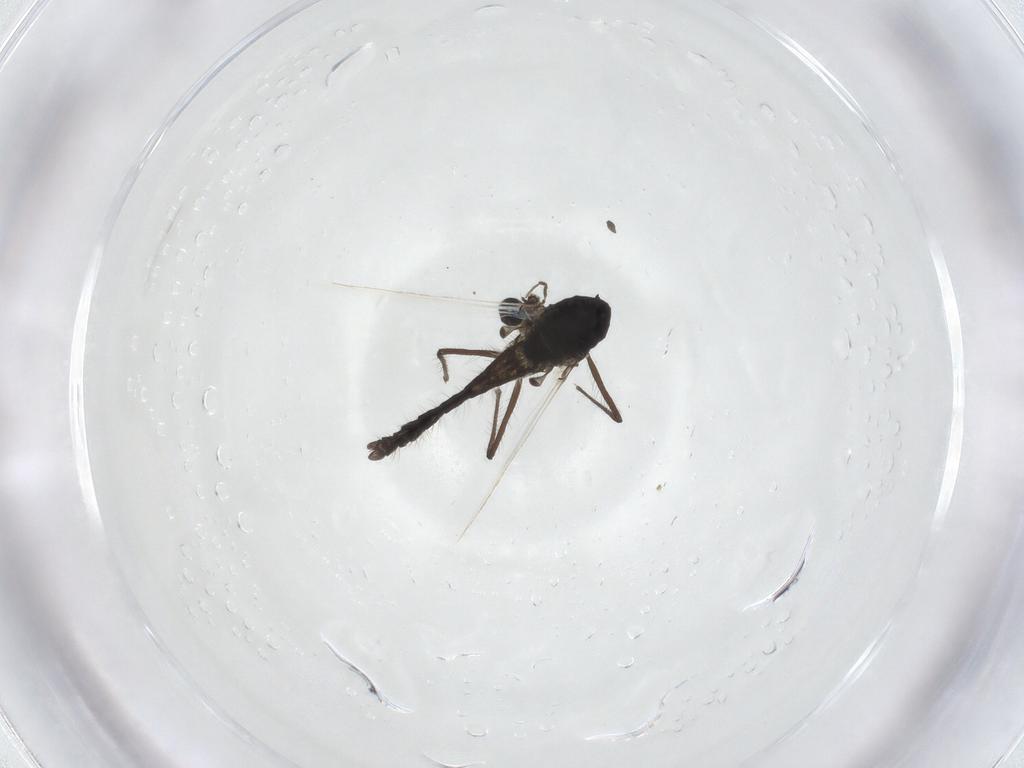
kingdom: Animalia
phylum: Arthropoda
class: Insecta
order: Diptera
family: Chironomidae
